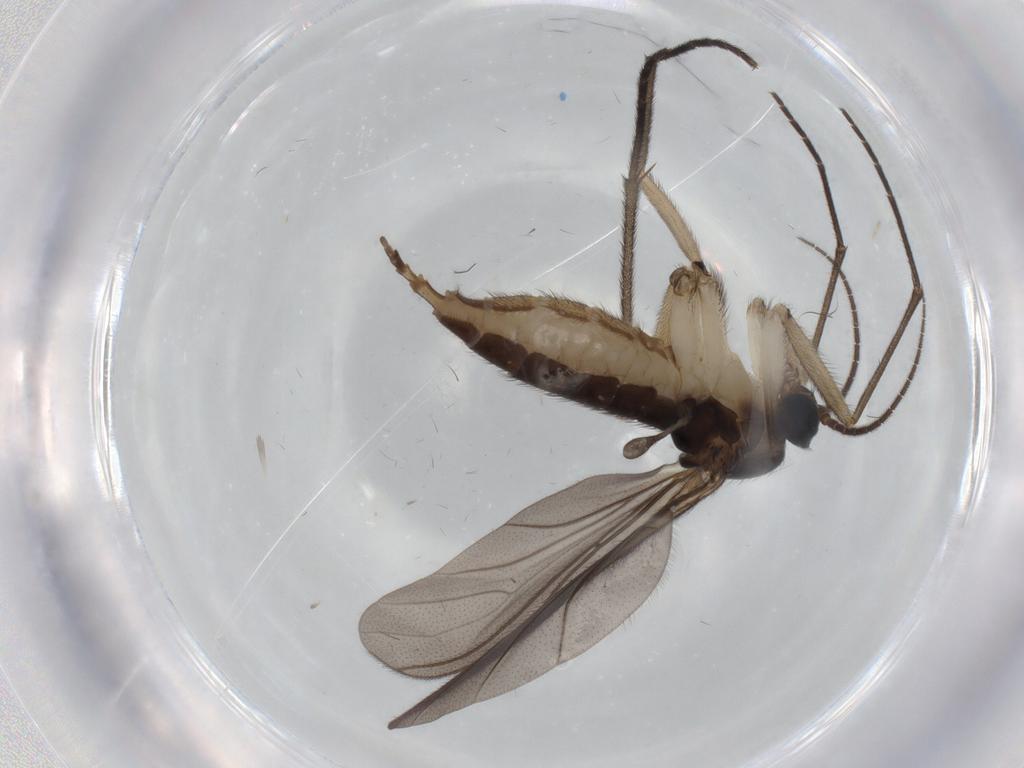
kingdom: Animalia
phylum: Arthropoda
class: Insecta
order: Diptera
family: Sciaridae
